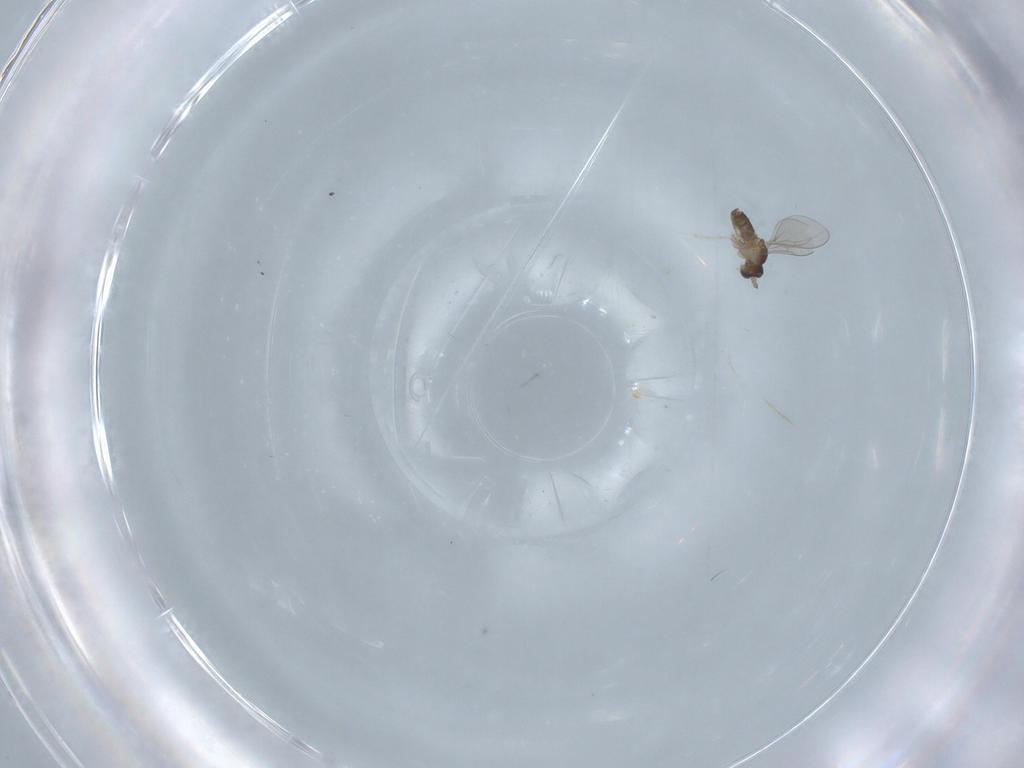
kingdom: Animalia
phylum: Arthropoda
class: Insecta
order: Diptera
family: Cecidomyiidae
